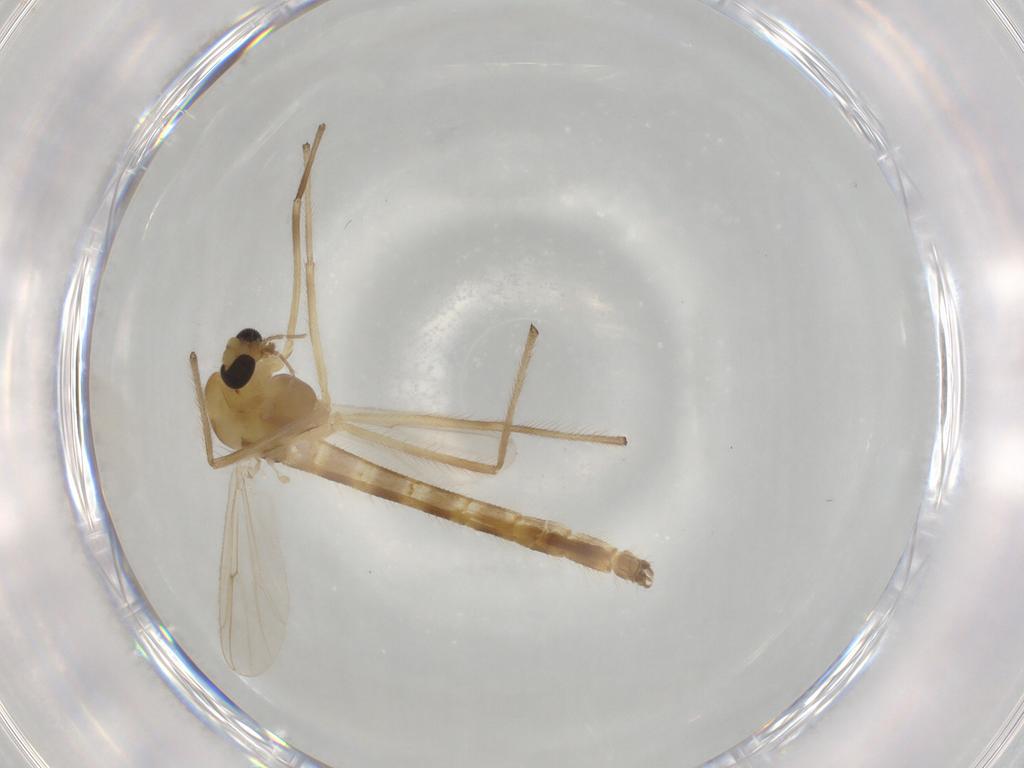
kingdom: Animalia
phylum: Arthropoda
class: Insecta
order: Diptera
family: Chironomidae
